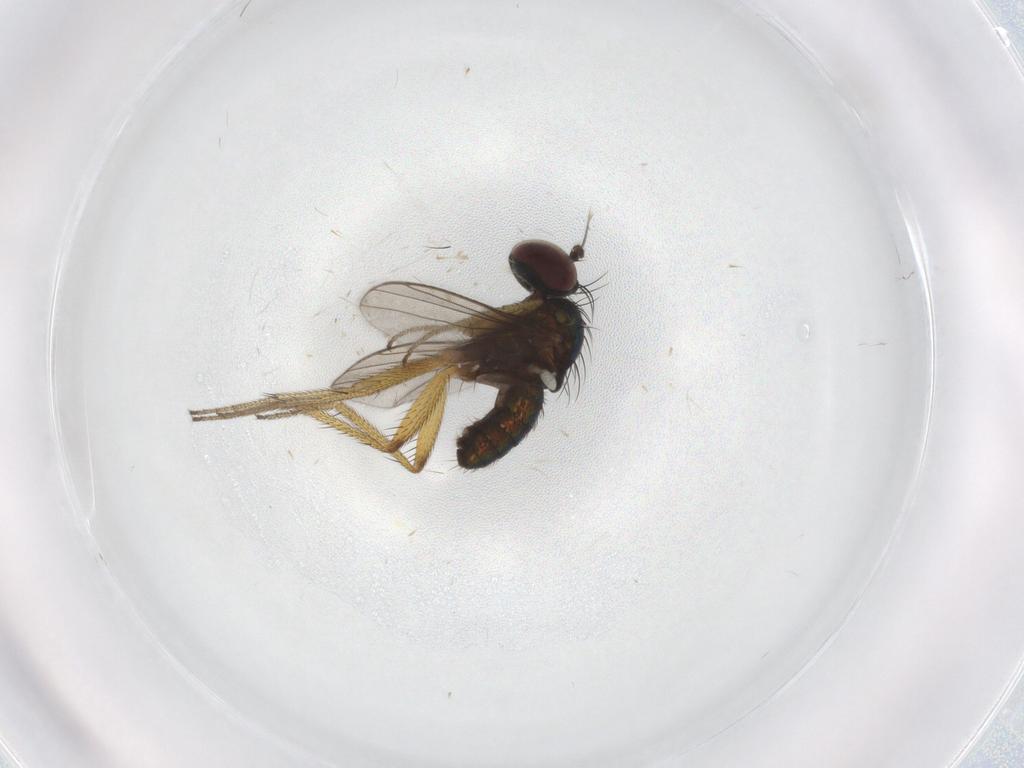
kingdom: Animalia
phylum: Arthropoda
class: Insecta
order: Diptera
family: Chironomidae
